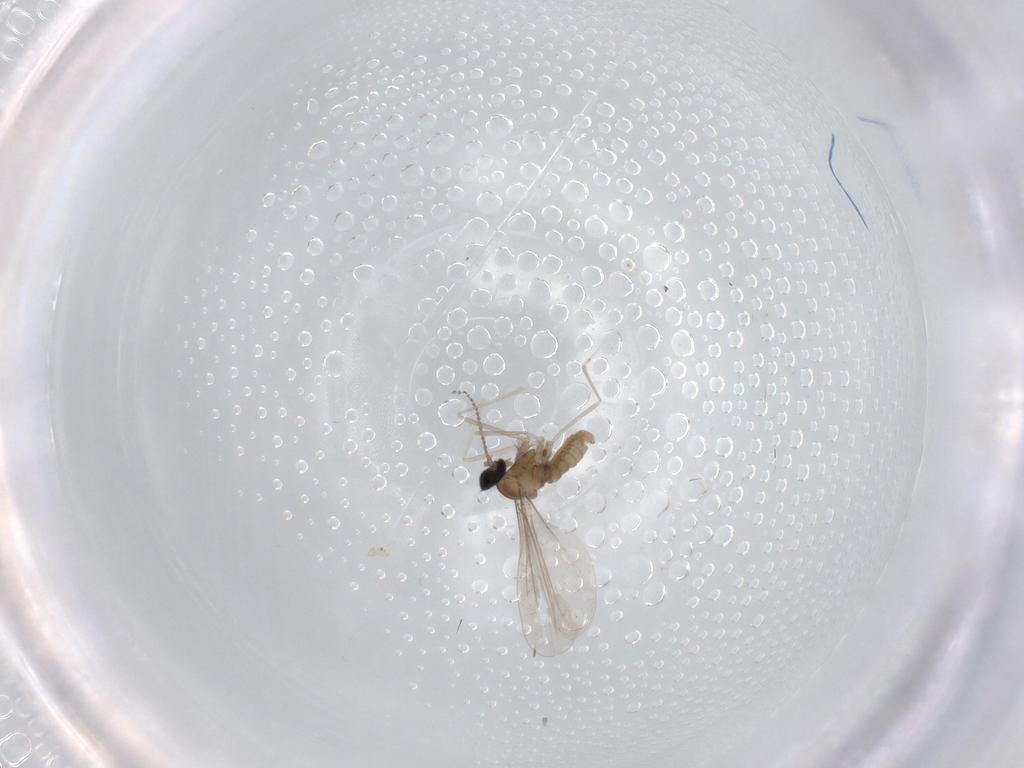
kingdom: Animalia
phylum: Arthropoda
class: Insecta
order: Diptera
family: Cecidomyiidae
